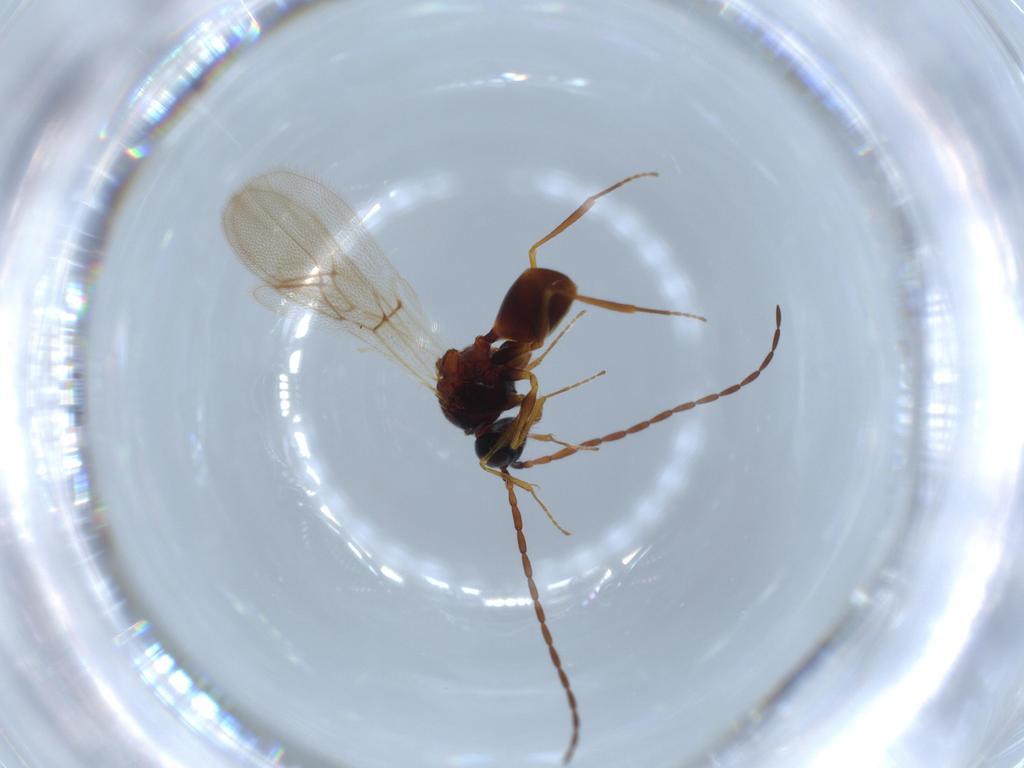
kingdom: Animalia
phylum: Arthropoda
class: Insecta
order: Hymenoptera
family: Figitidae
